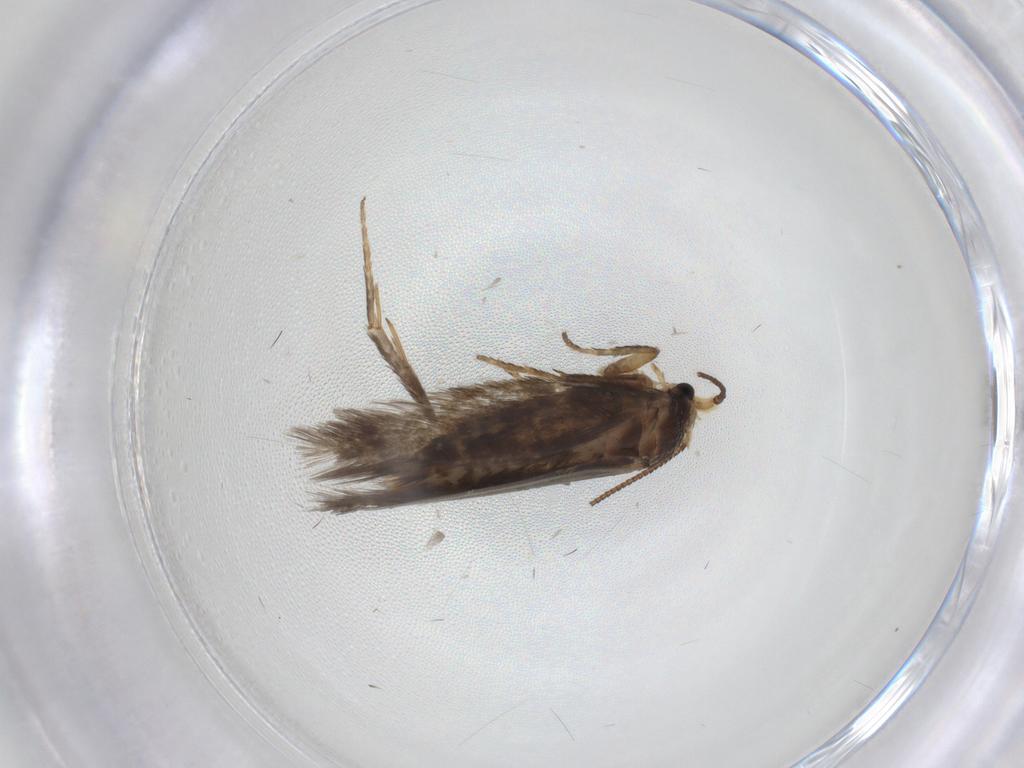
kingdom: Animalia
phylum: Arthropoda
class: Insecta
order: Lepidoptera
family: Nepticulidae
